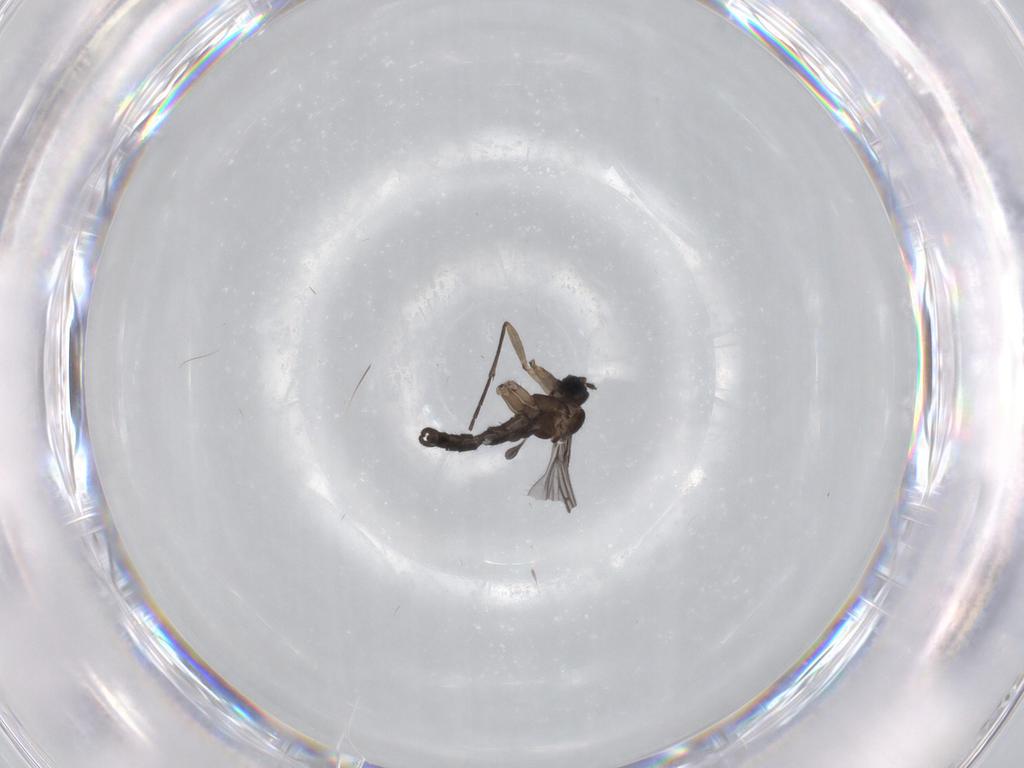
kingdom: Animalia
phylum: Arthropoda
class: Insecta
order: Diptera
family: Sciaridae
